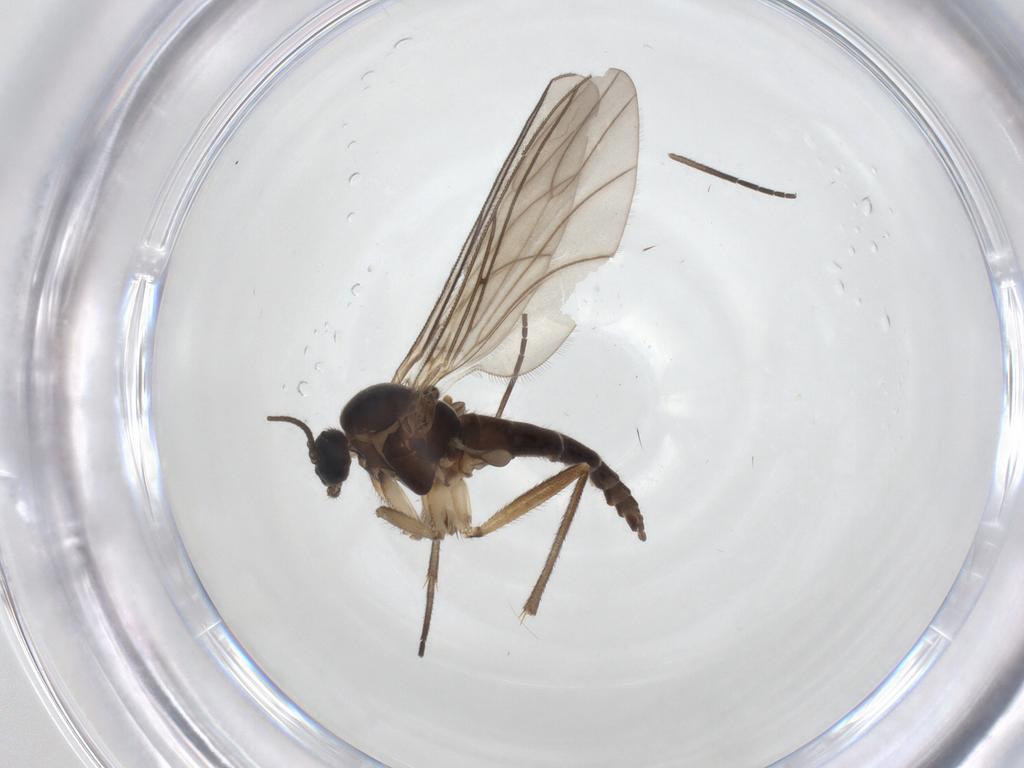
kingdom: Animalia
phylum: Arthropoda
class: Insecta
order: Diptera
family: Sciaridae
